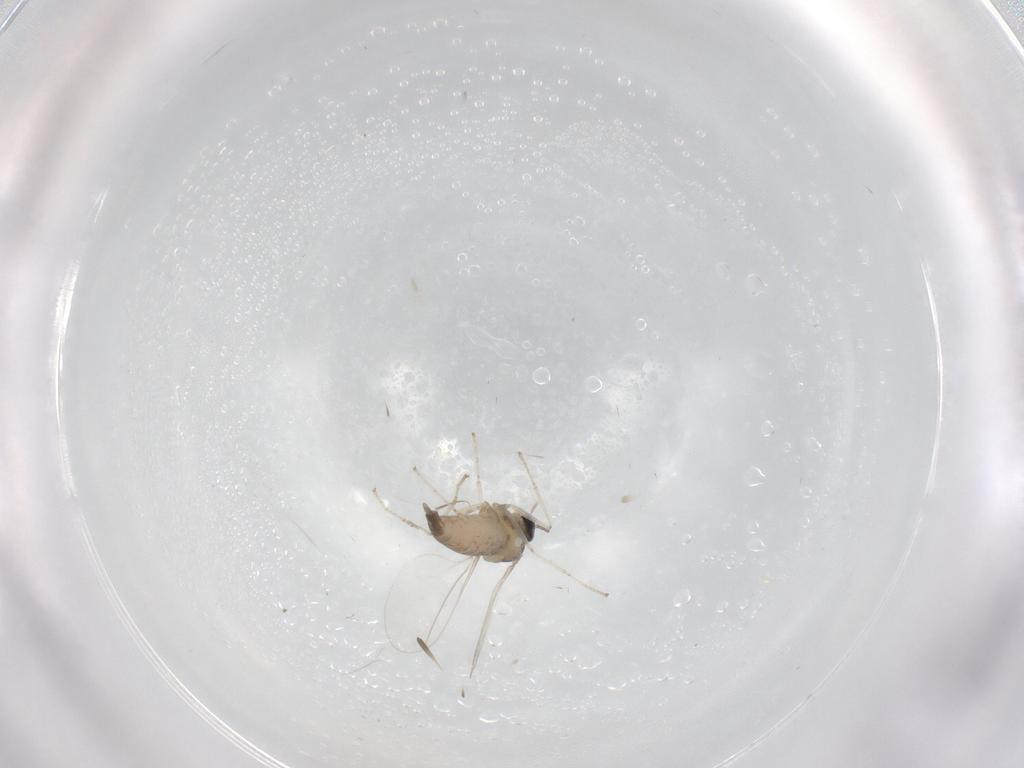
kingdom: Animalia
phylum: Arthropoda
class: Insecta
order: Diptera
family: Cecidomyiidae
